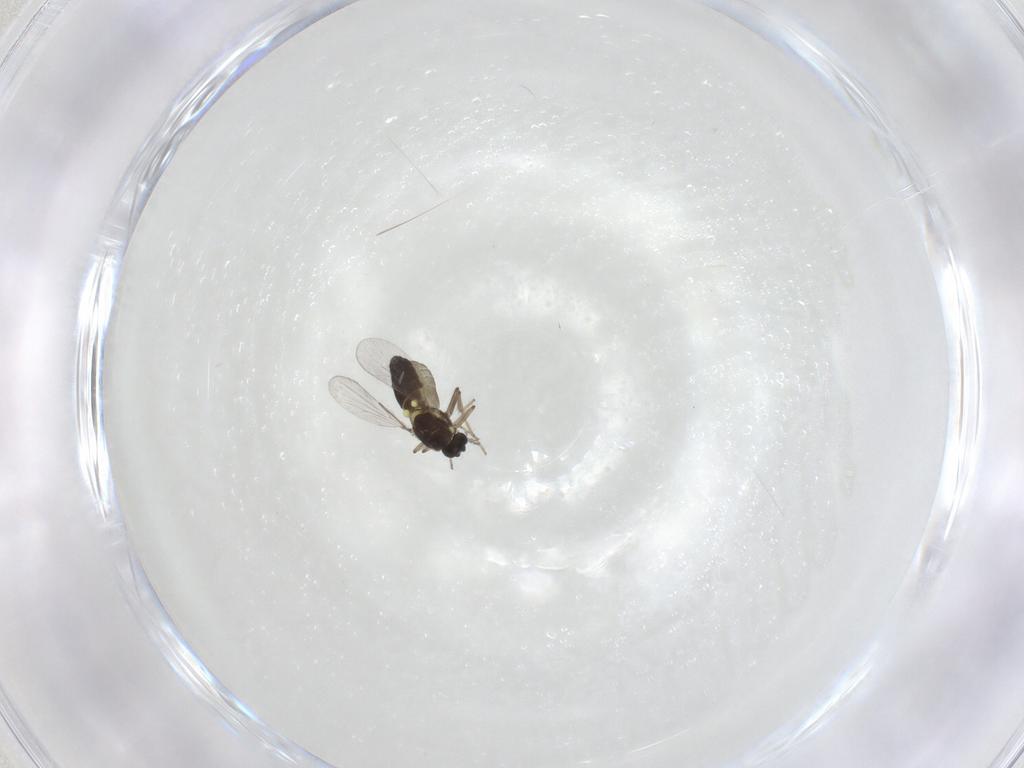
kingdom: Animalia
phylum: Arthropoda
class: Insecta
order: Diptera
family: Ceratopogonidae
